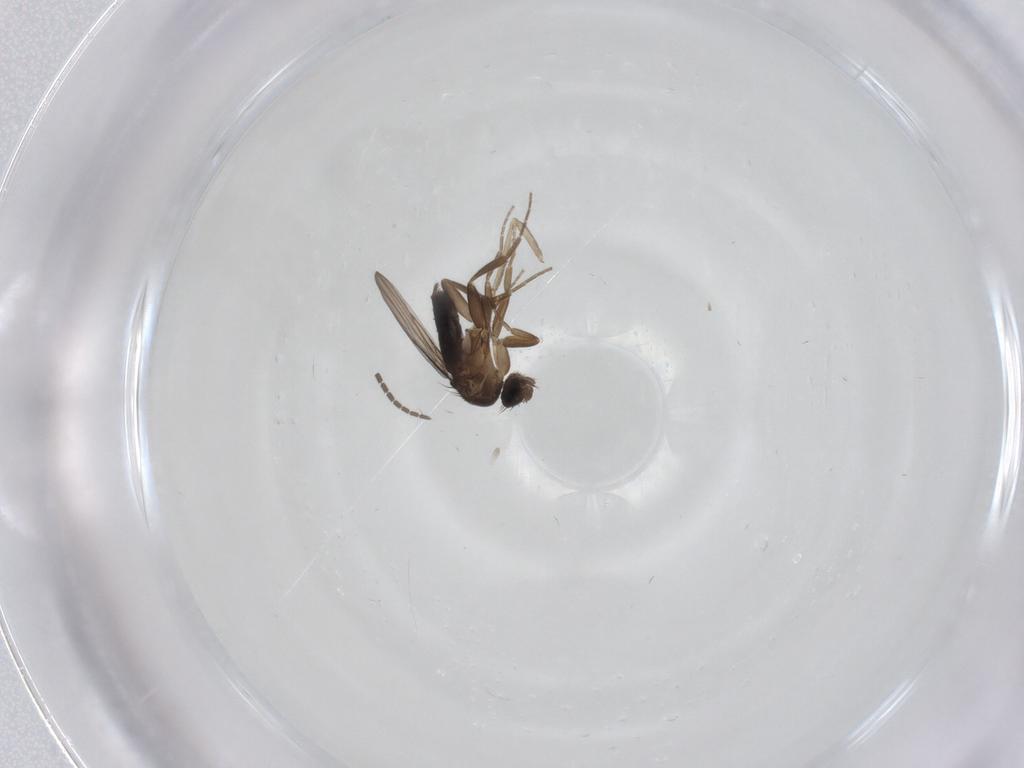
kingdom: Animalia
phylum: Arthropoda
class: Insecta
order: Diptera
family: Psychodidae
